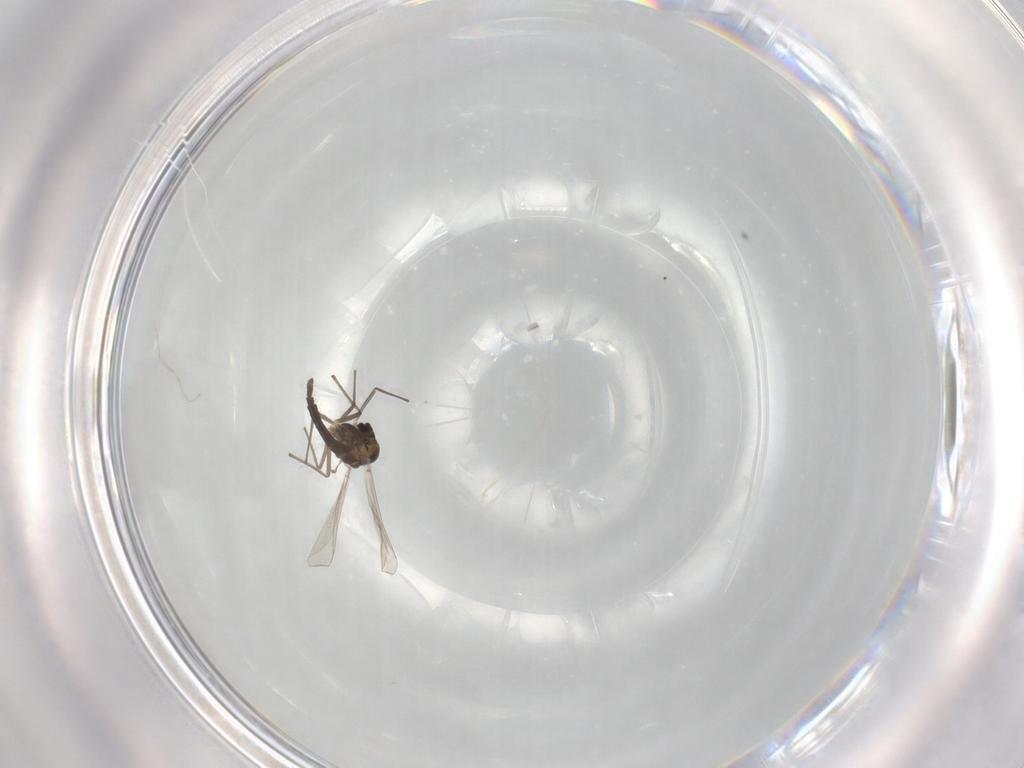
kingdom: Animalia
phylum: Arthropoda
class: Insecta
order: Diptera
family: Chironomidae
